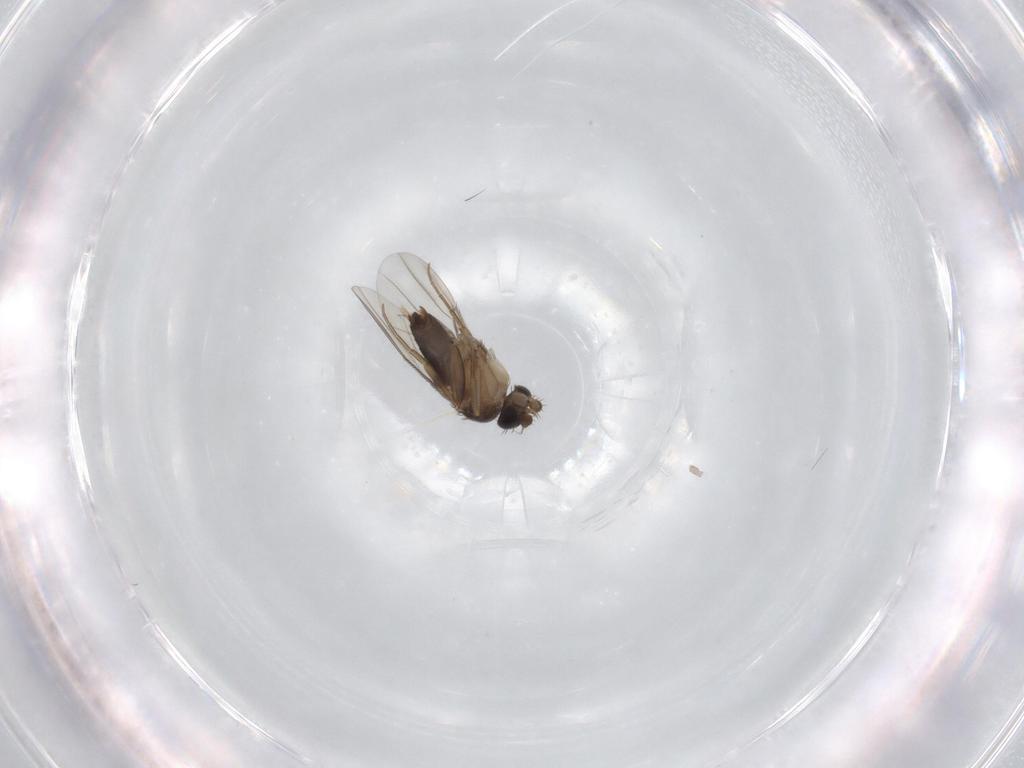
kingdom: Animalia
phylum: Arthropoda
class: Insecta
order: Diptera
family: Phoridae
